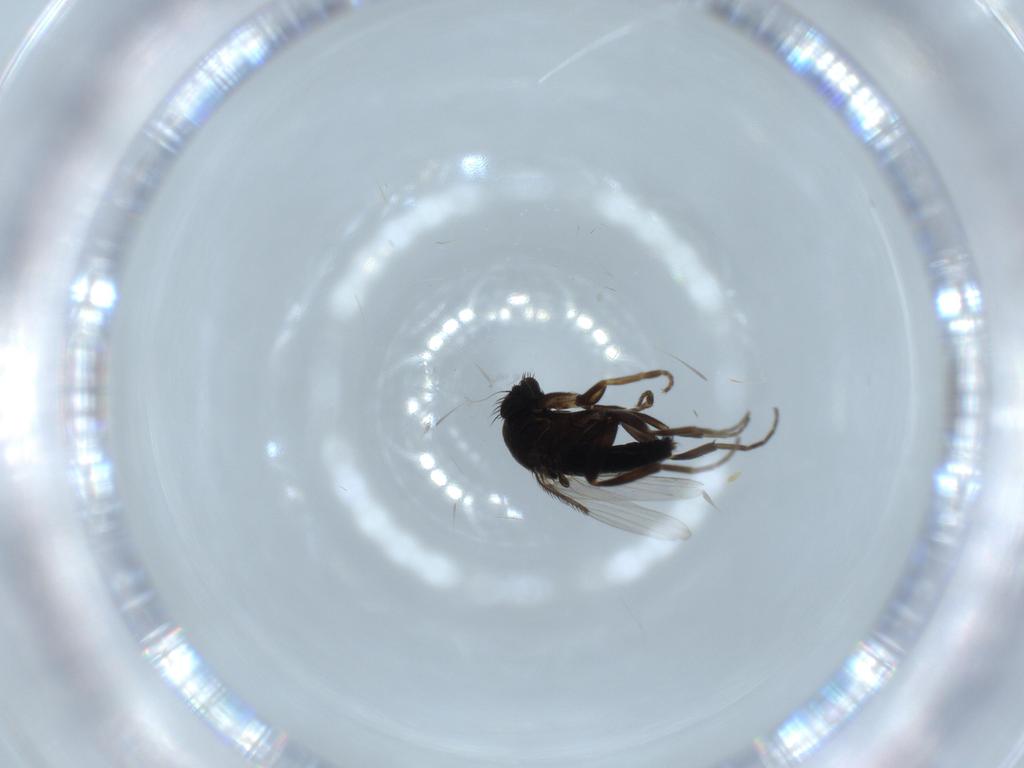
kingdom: Animalia
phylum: Arthropoda
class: Insecta
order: Diptera
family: Phoridae
